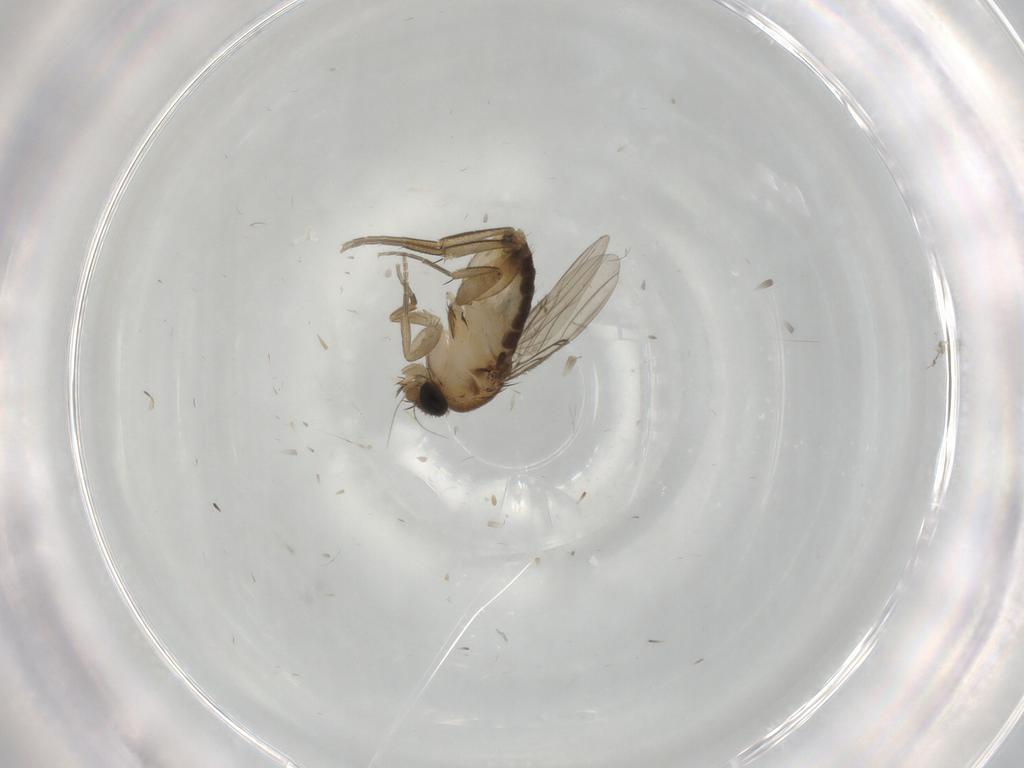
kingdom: Animalia
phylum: Arthropoda
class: Insecta
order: Diptera
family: Phoridae
